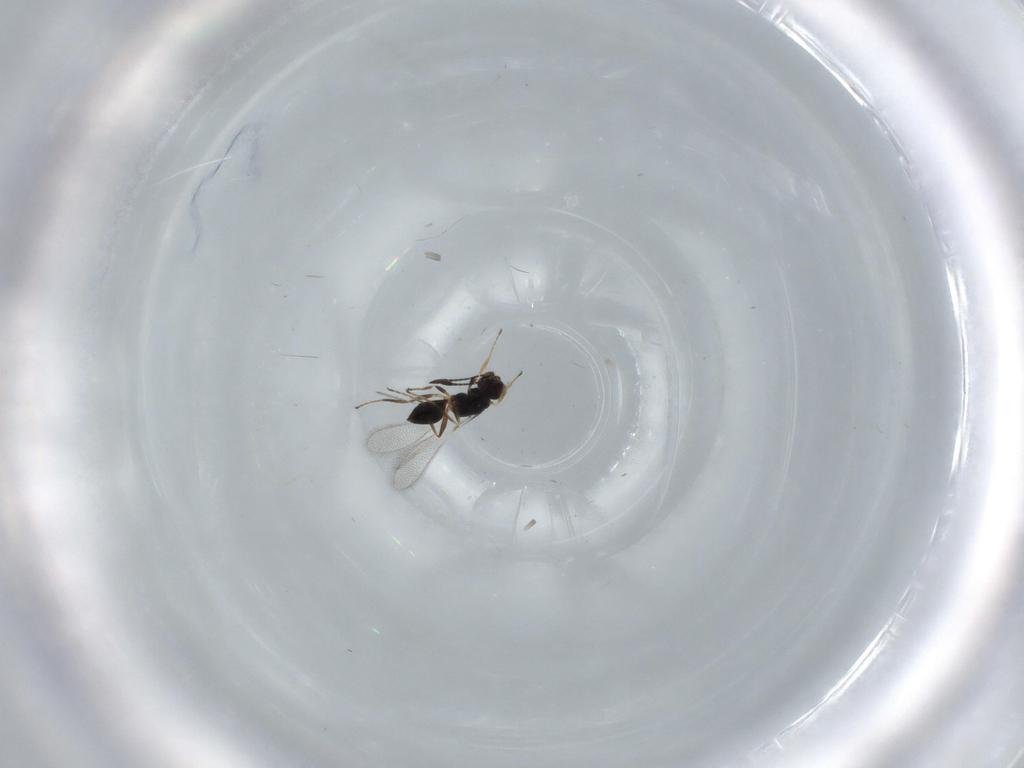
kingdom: Animalia
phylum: Arthropoda
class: Insecta
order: Hymenoptera
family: Mymaridae
